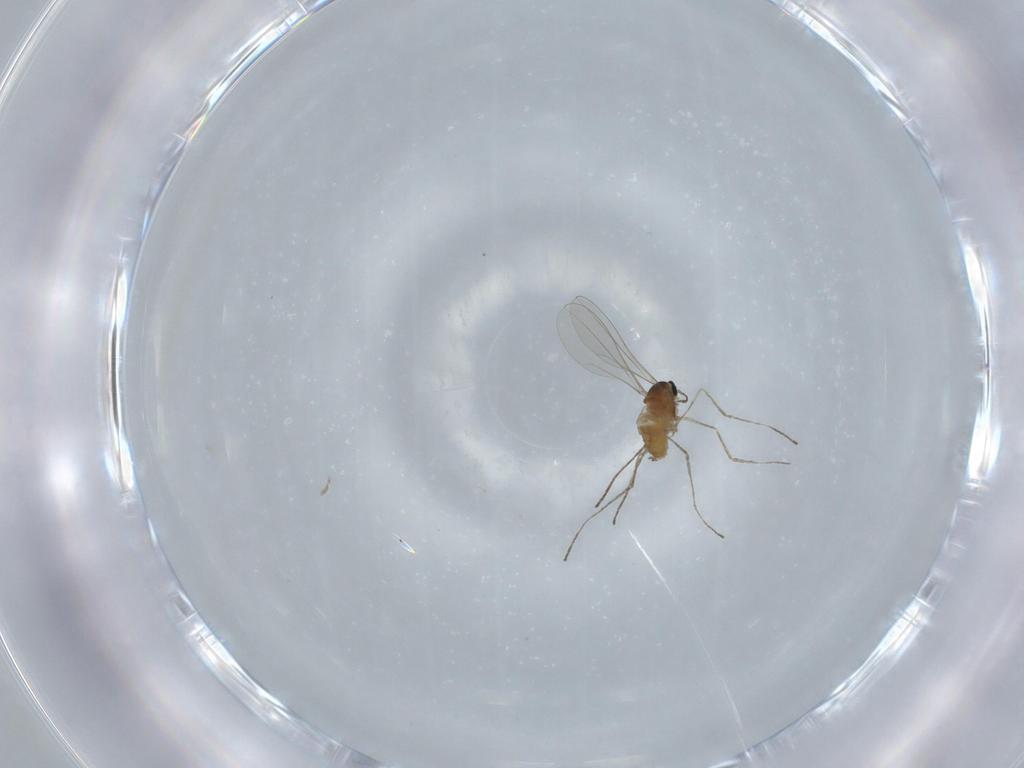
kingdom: Animalia
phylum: Arthropoda
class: Insecta
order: Diptera
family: Cecidomyiidae
